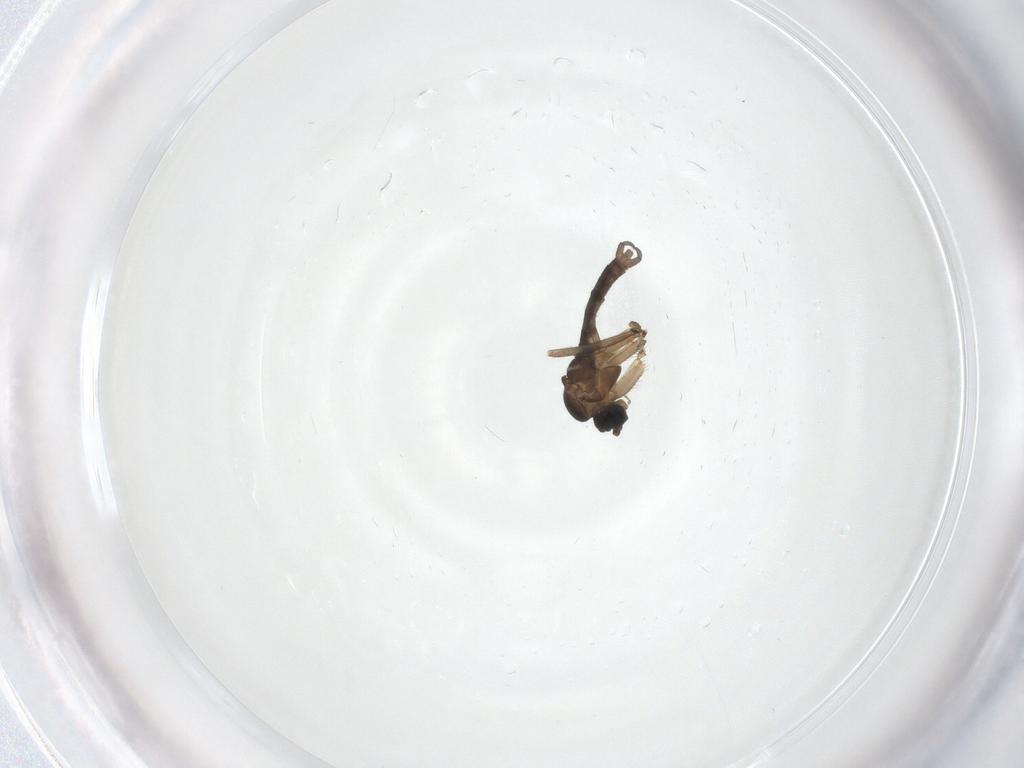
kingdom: Animalia
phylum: Arthropoda
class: Insecta
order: Diptera
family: Sciaridae
